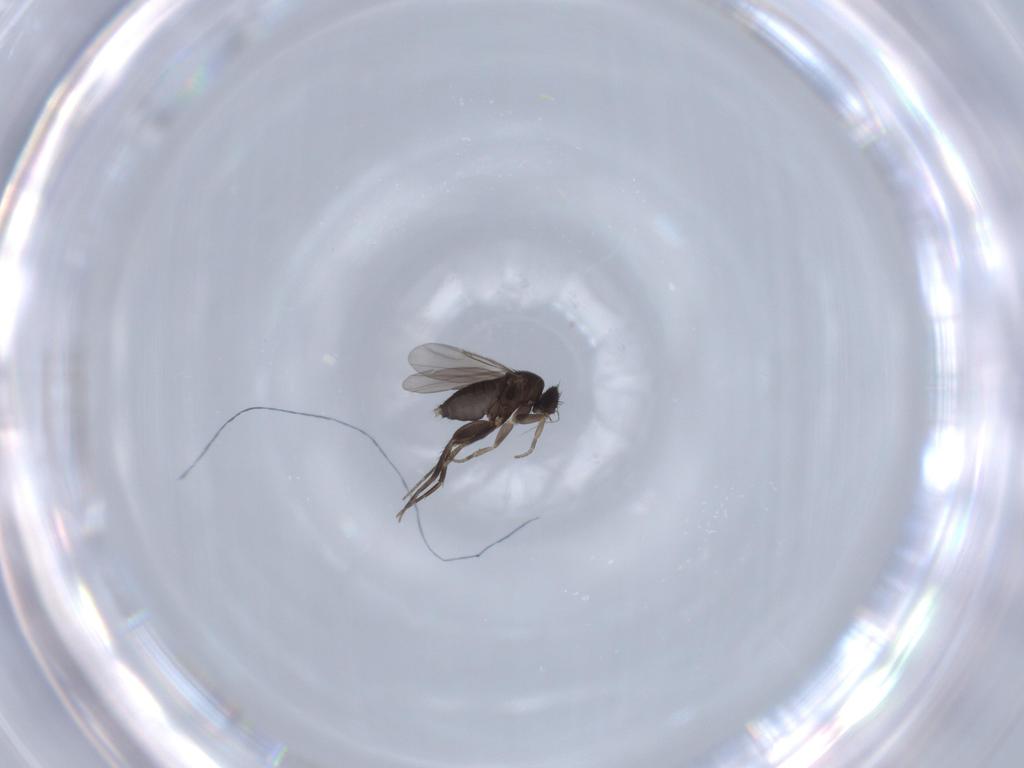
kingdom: Animalia
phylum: Arthropoda
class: Insecta
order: Diptera
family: Phoridae
